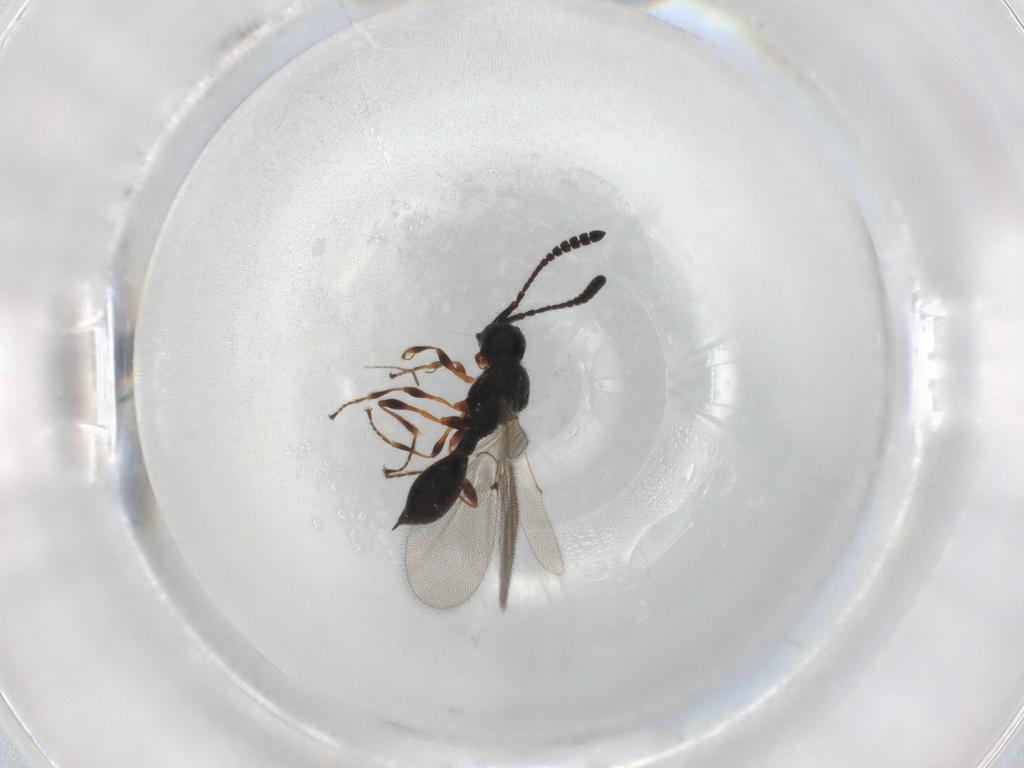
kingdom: Animalia
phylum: Arthropoda
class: Insecta
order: Hymenoptera
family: Diapriidae
